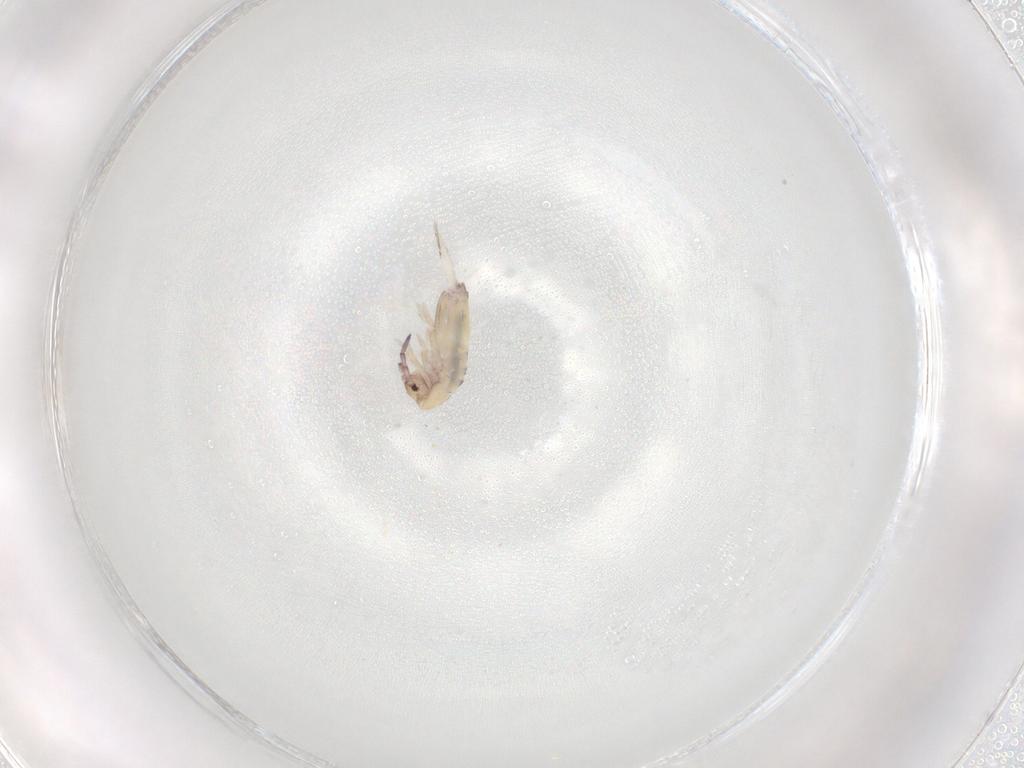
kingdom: Animalia
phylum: Arthropoda
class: Collembola
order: Entomobryomorpha
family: Entomobryidae
